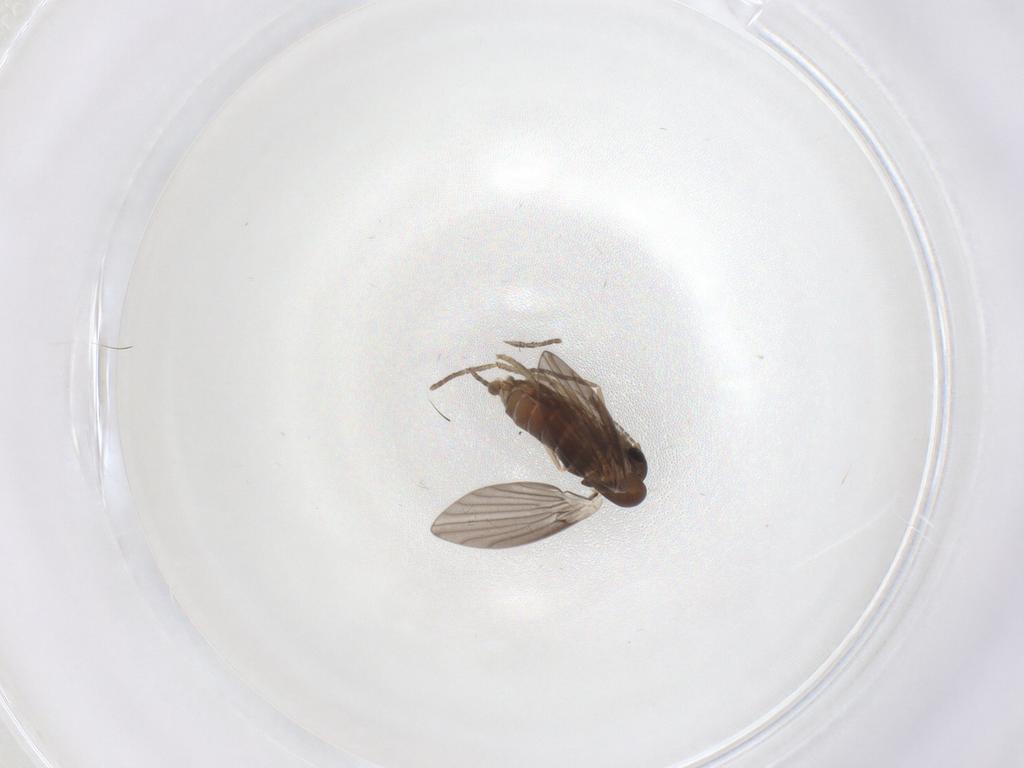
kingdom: Animalia
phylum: Arthropoda
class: Insecta
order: Diptera
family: Psychodidae
